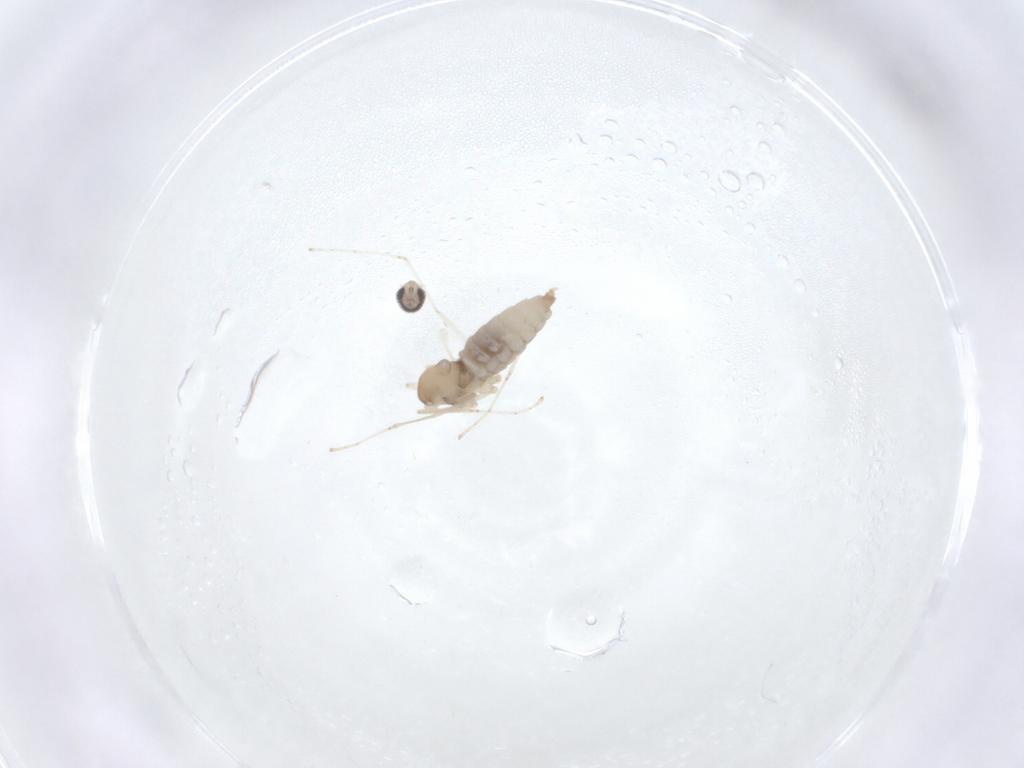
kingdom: Animalia
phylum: Arthropoda
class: Insecta
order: Diptera
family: Cecidomyiidae
